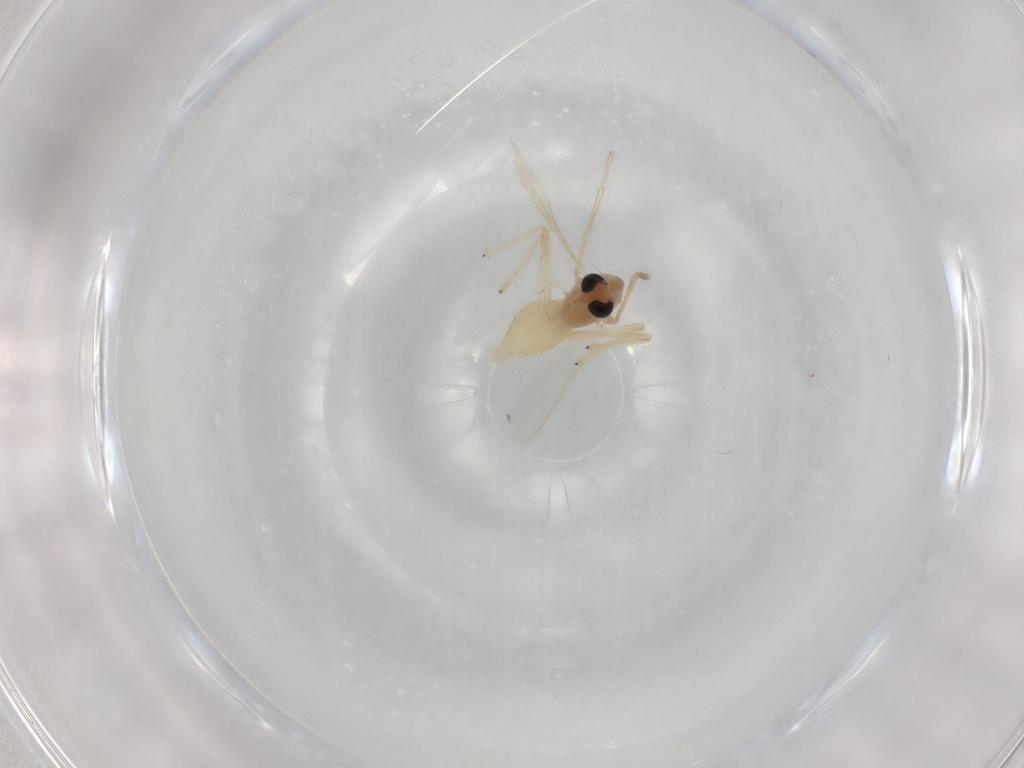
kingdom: Animalia
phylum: Arthropoda
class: Insecta
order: Diptera
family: Chironomidae
